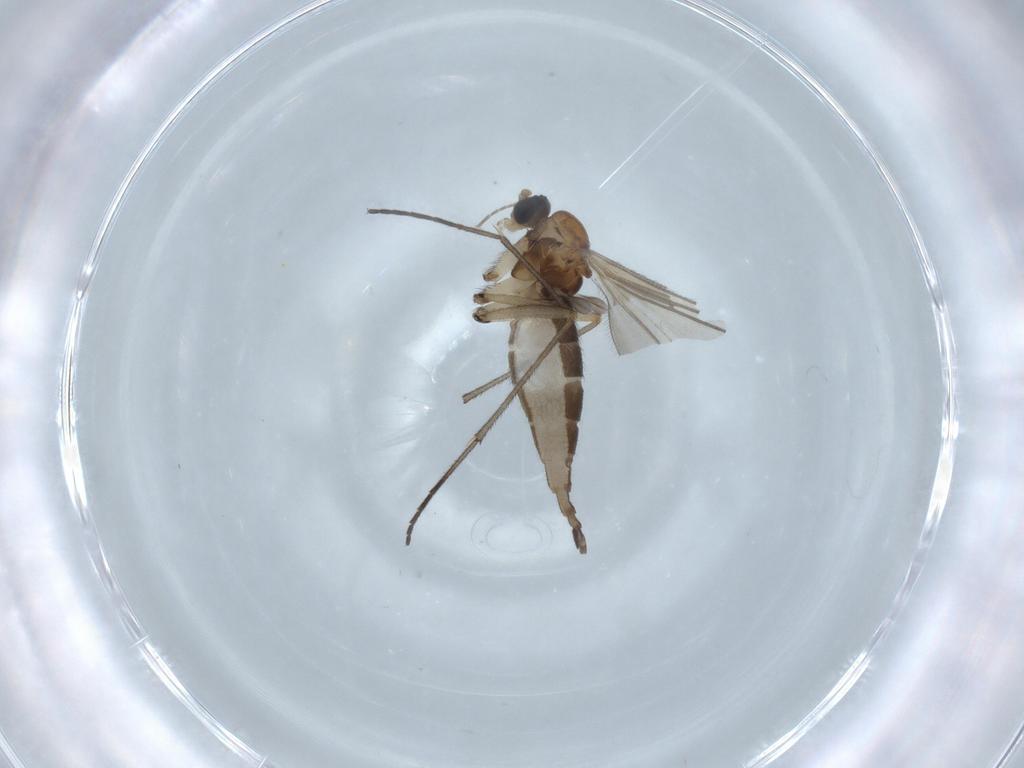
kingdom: Animalia
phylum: Arthropoda
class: Insecta
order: Diptera
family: Sciaridae
